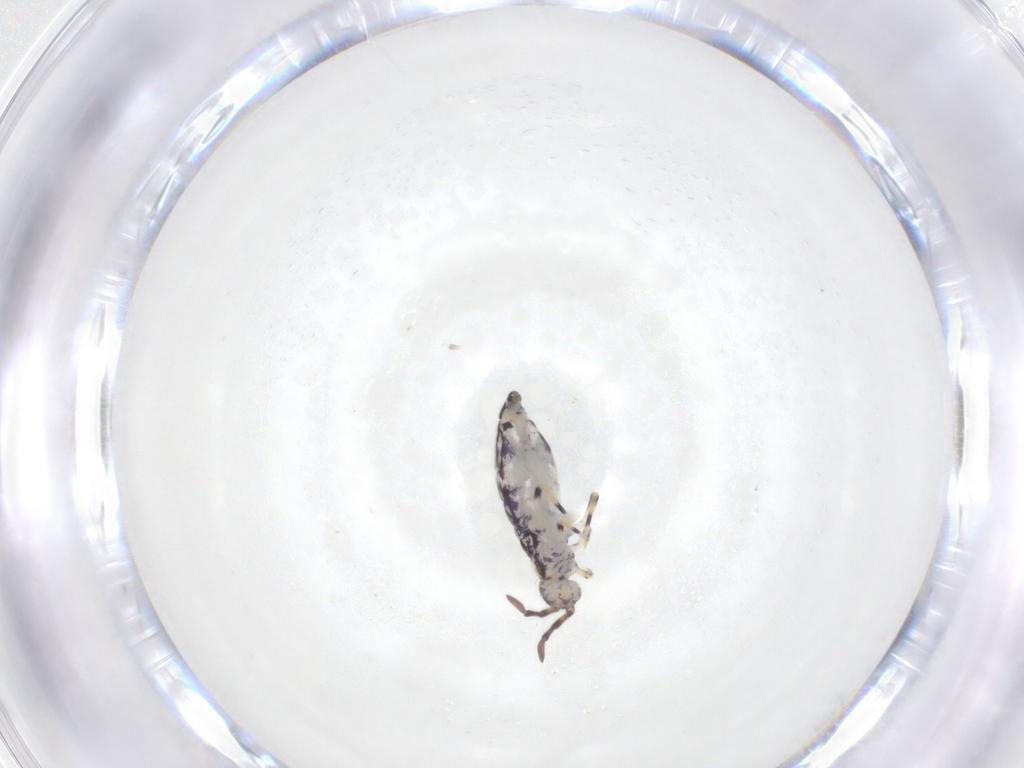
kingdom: Animalia
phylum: Arthropoda
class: Collembola
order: Entomobryomorpha
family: Entomobryidae
